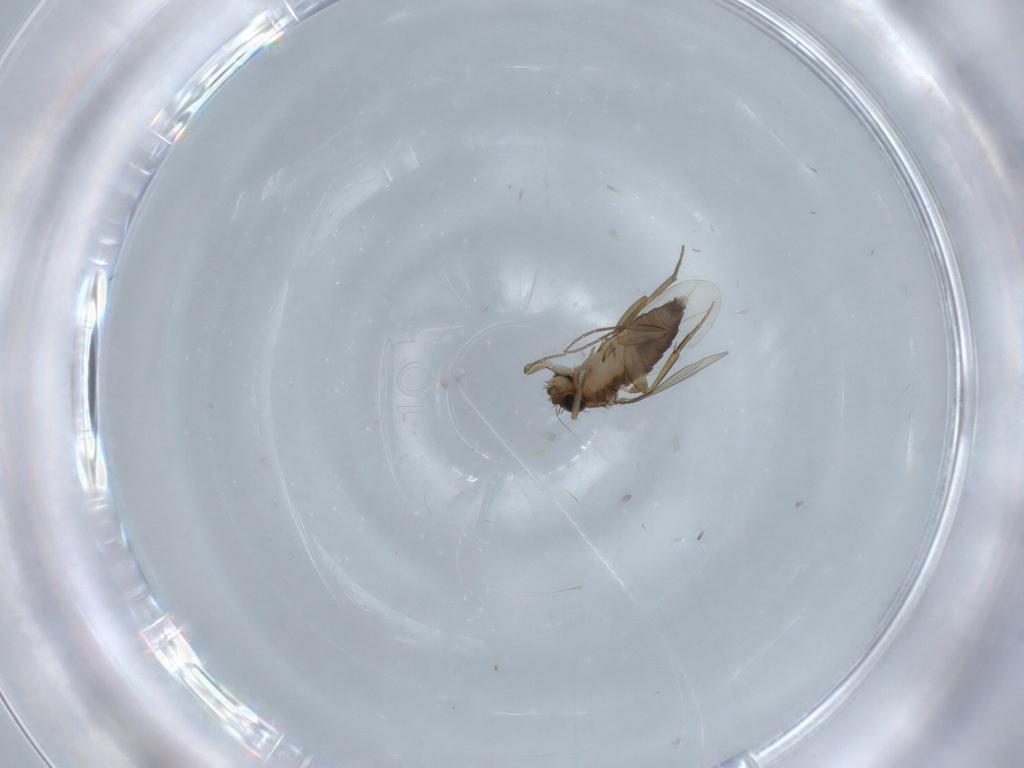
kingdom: Animalia
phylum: Arthropoda
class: Insecta
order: Diptera
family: Phoridae
